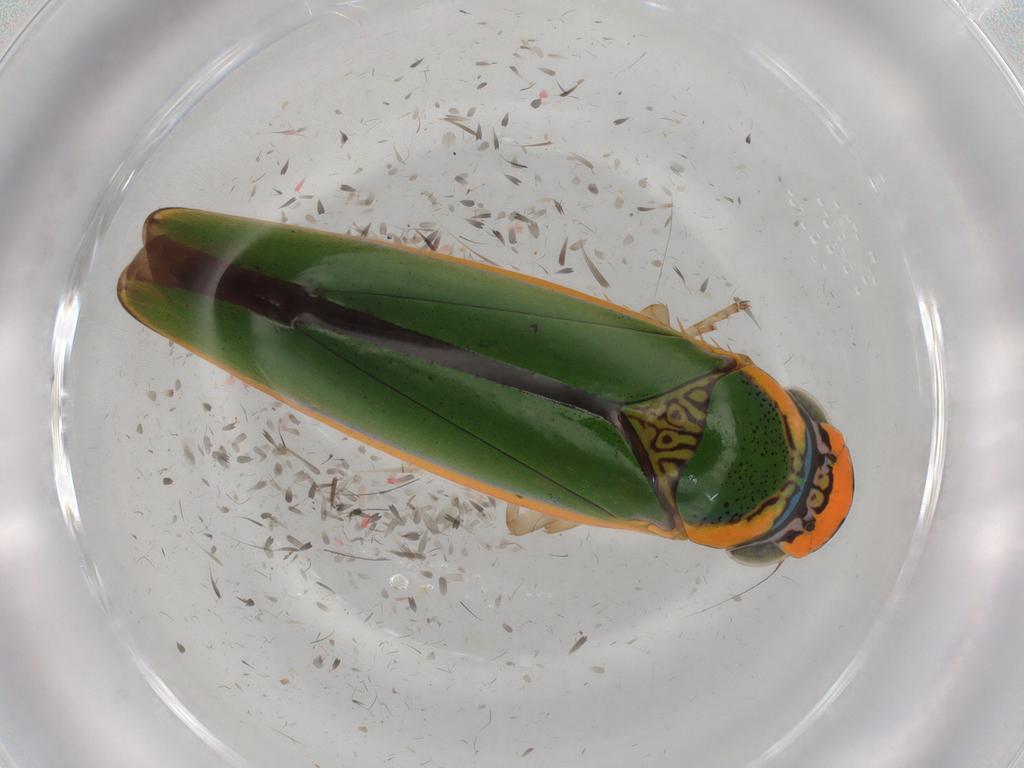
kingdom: Animalia
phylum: Arthropoda
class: Insecta
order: Hemiptera
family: Cicadellidae
